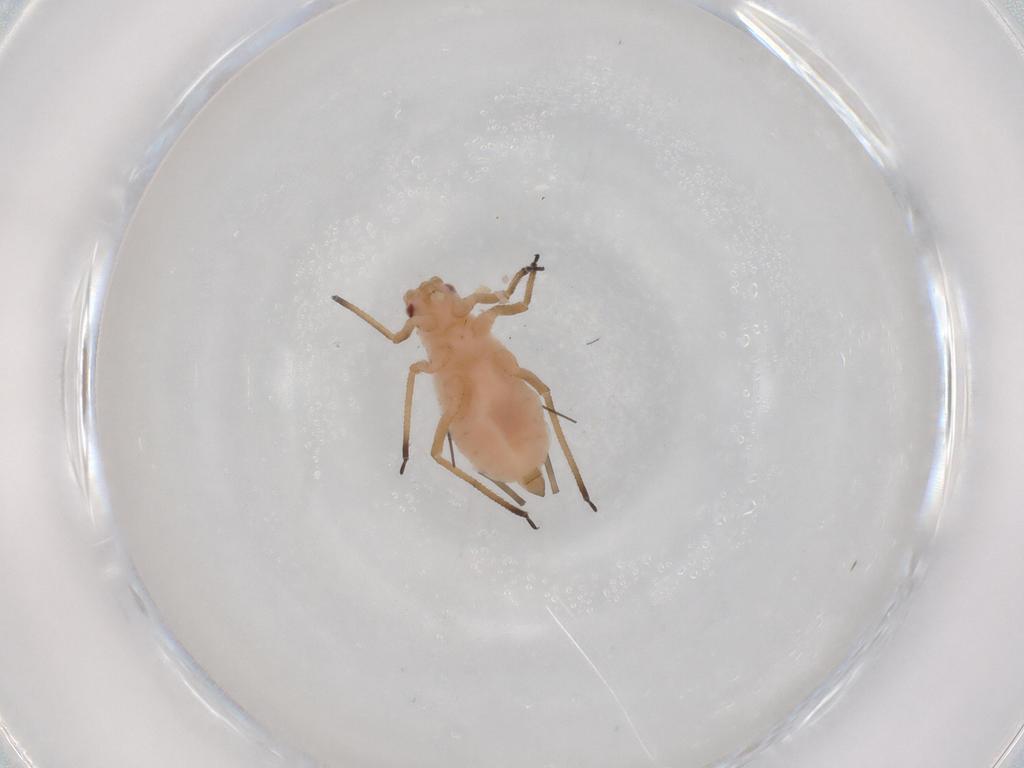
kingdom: Animalia
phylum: Arthropoda
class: Insecta
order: Hemiptera
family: Aphididae
